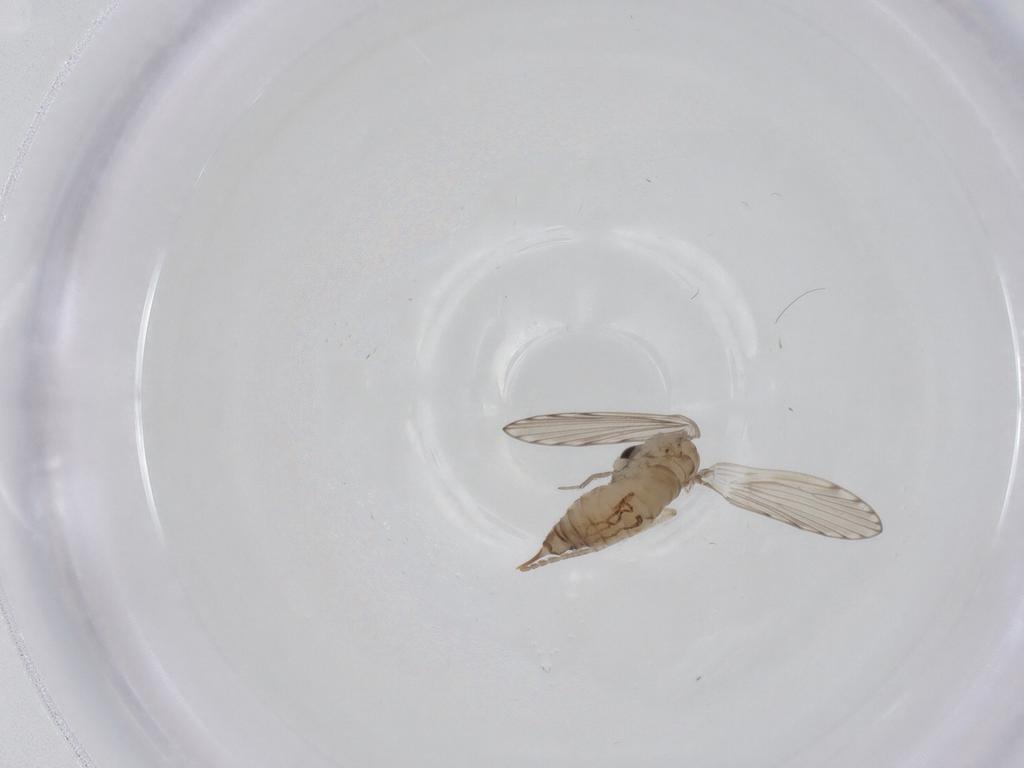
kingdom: Animalia
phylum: Arthropoda
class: Insecta
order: Diptera
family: Psychodidae
